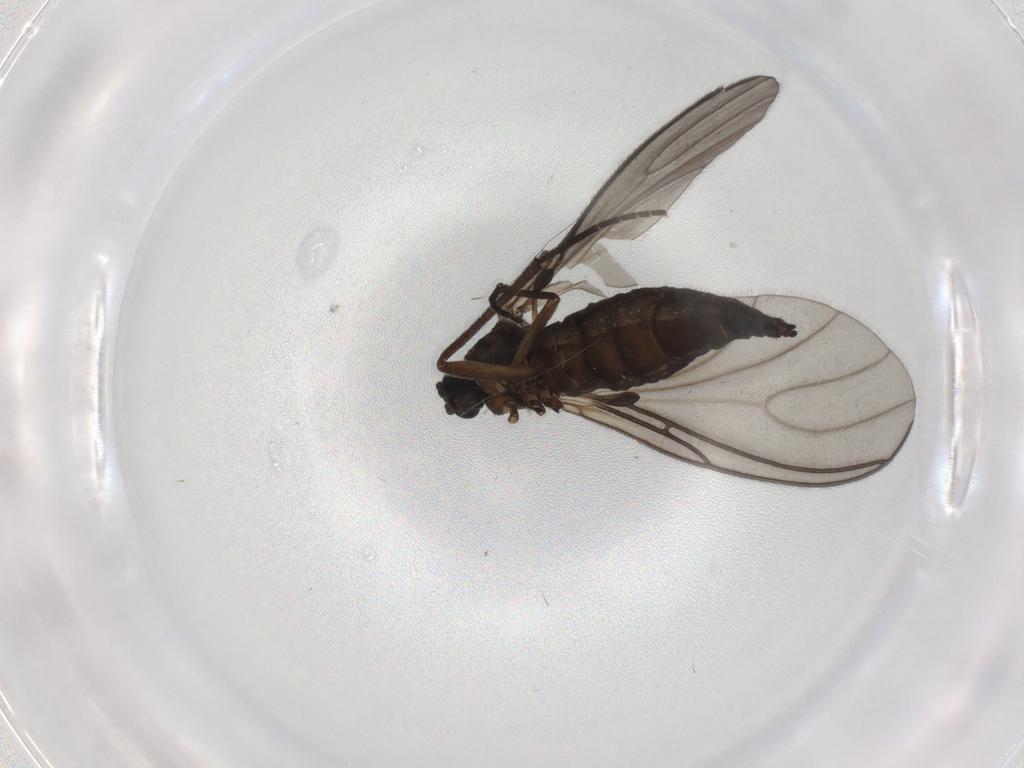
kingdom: Animalia
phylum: Arthropoda
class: Insecta
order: Diptera
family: Sciaridae
